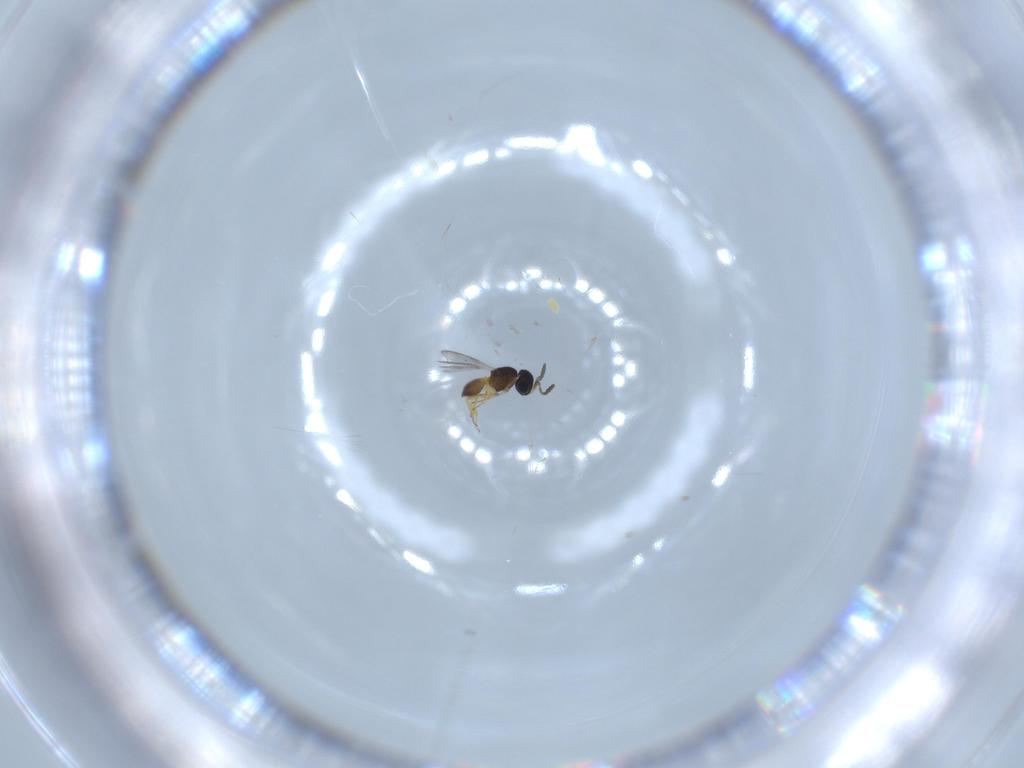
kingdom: Animalia
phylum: Arthropoda
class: Insecta
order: Hymenoptera
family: Scelionidae
